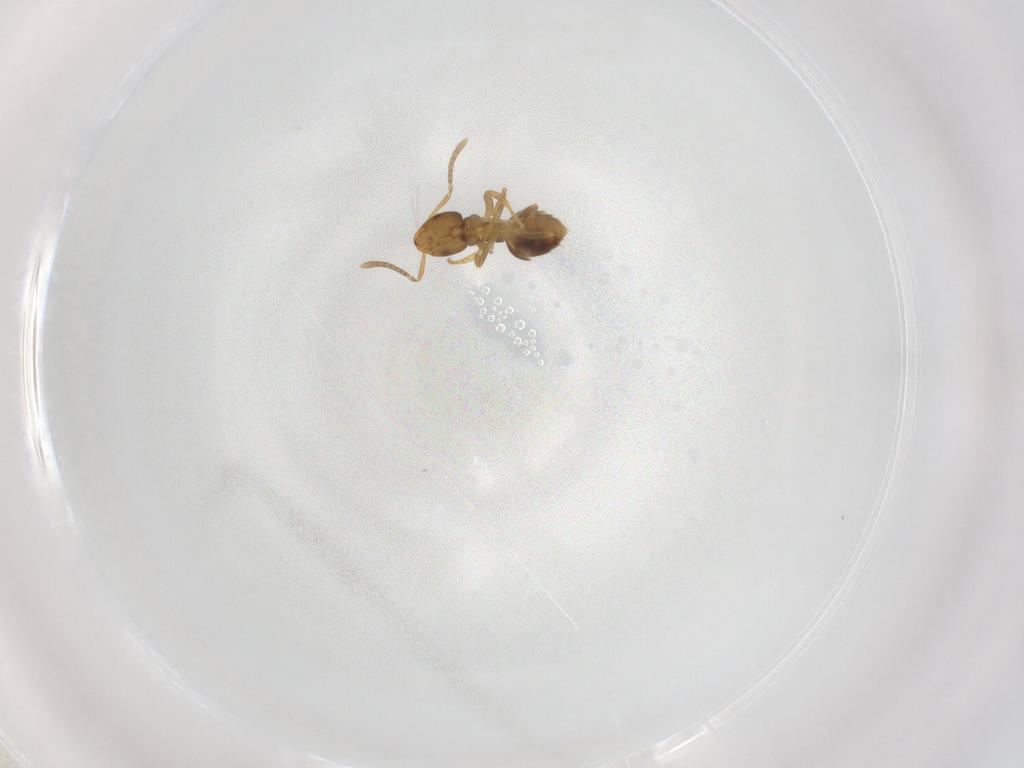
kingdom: Animalia
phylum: Arthropoda
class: Insecta
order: Hymenoptera
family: Formicidae
